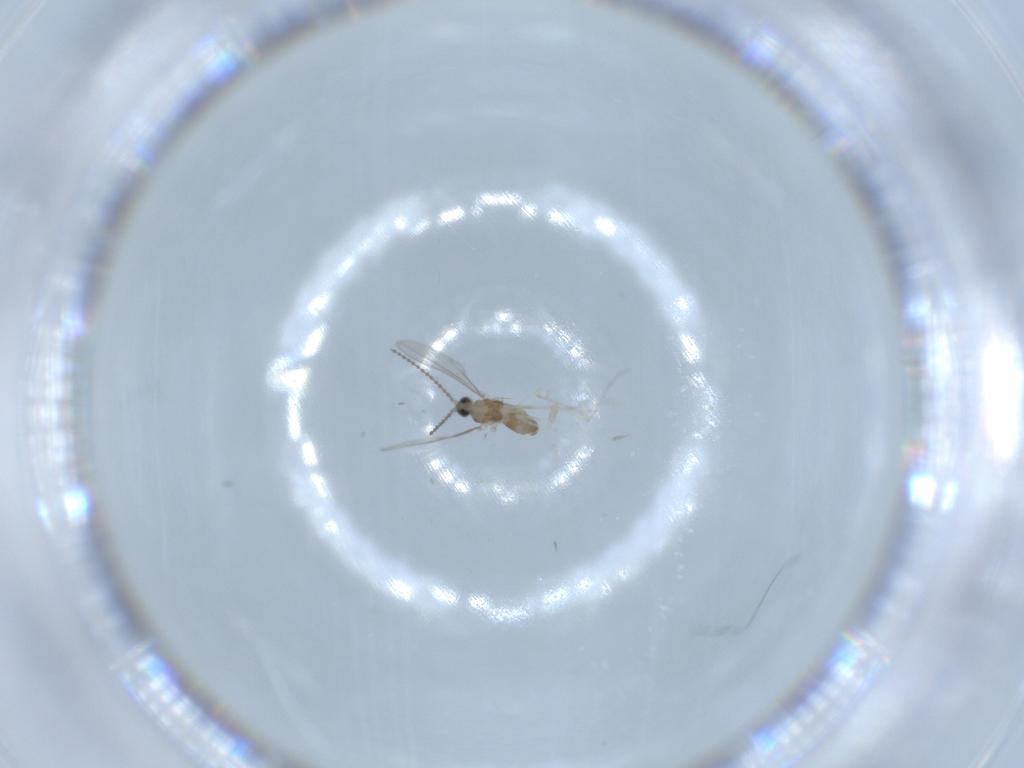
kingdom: Animalia
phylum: Arthropoda
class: Insecta
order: Diptera
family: Cecidomyiidae
